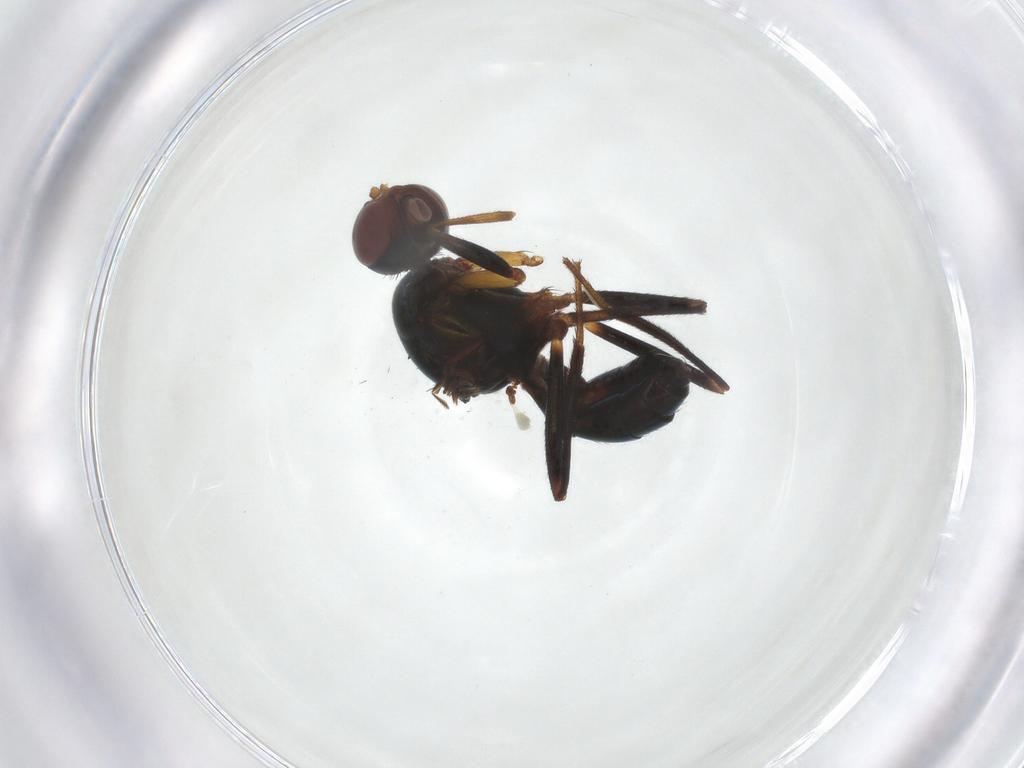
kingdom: Animalia
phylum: Arthropoda
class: Insecta
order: Diptera
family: Sepsidae
